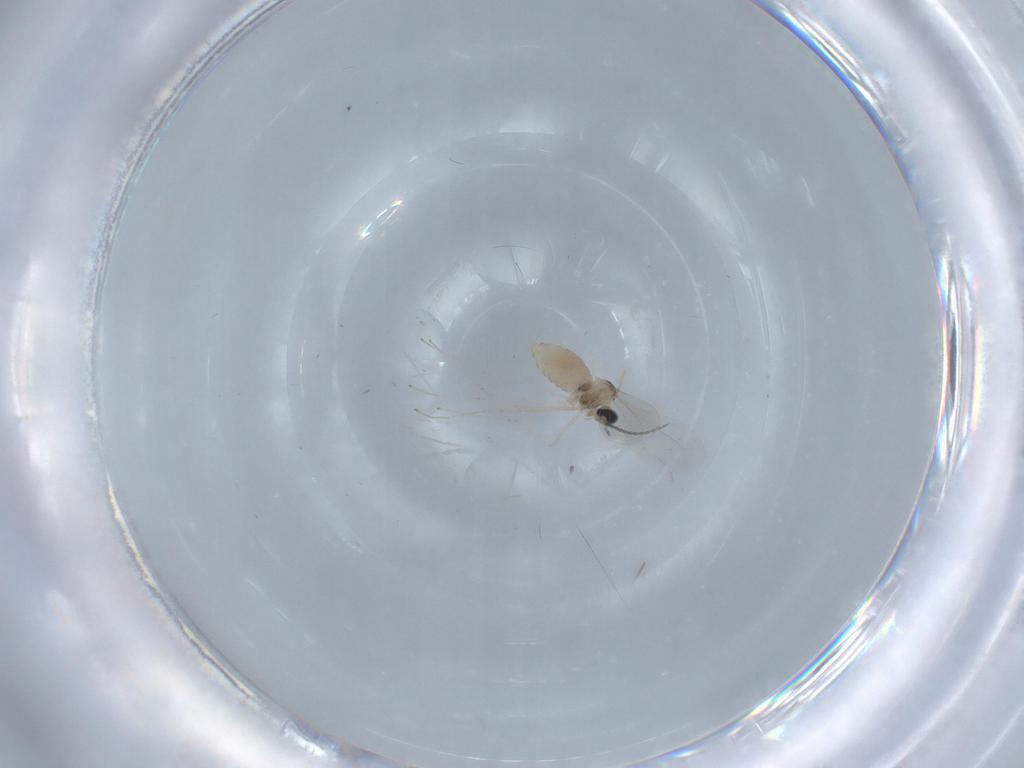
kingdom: Animalia
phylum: Arthropoda
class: Insecta
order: Diptera
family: Cecidomyiidae
